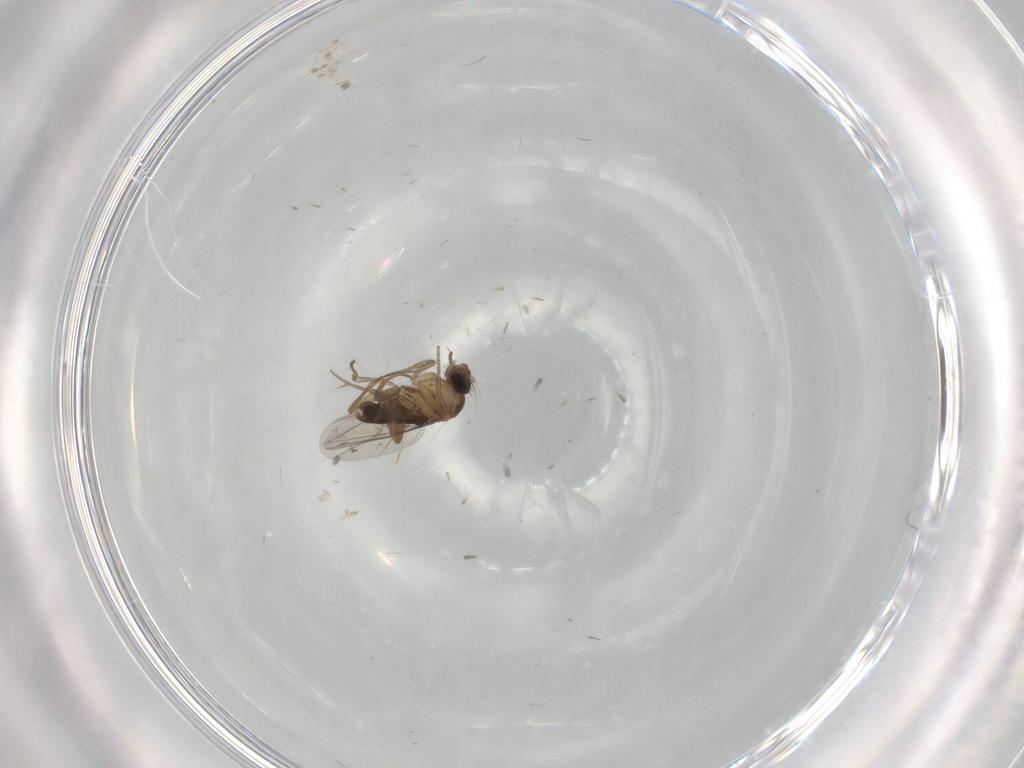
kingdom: Animalia
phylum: Arthropoda
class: Insecta
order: Diptera
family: Phoridae
